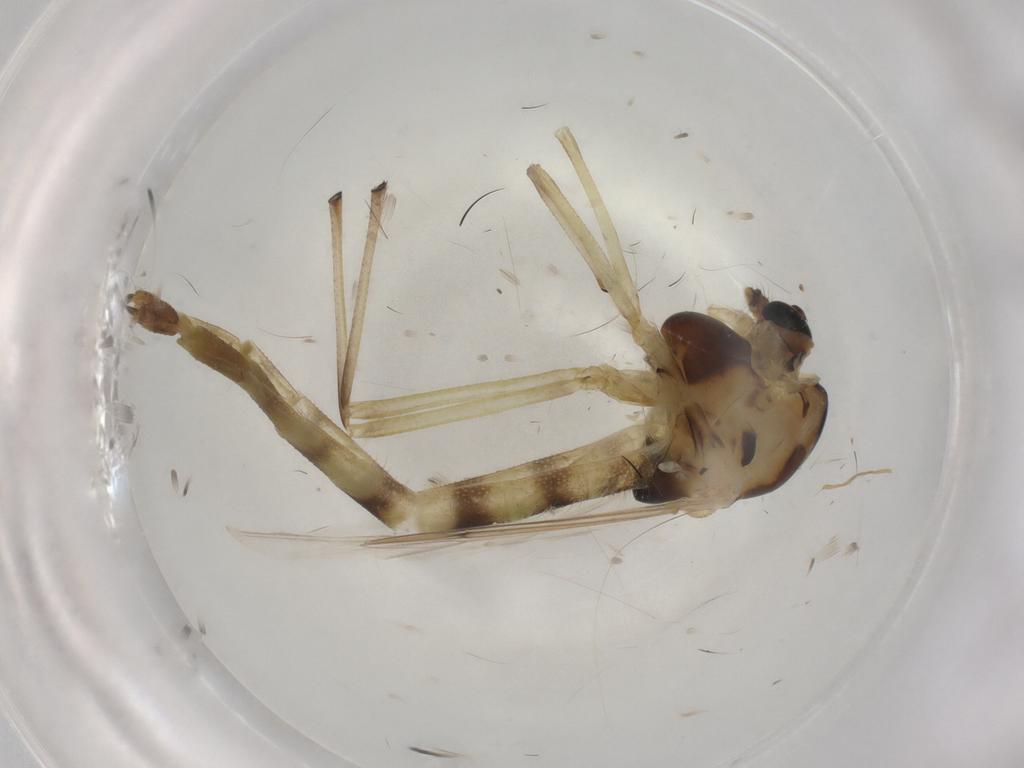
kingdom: Animalia
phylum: Arthropoda
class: Insecta
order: Diptera
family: Chironomidae
